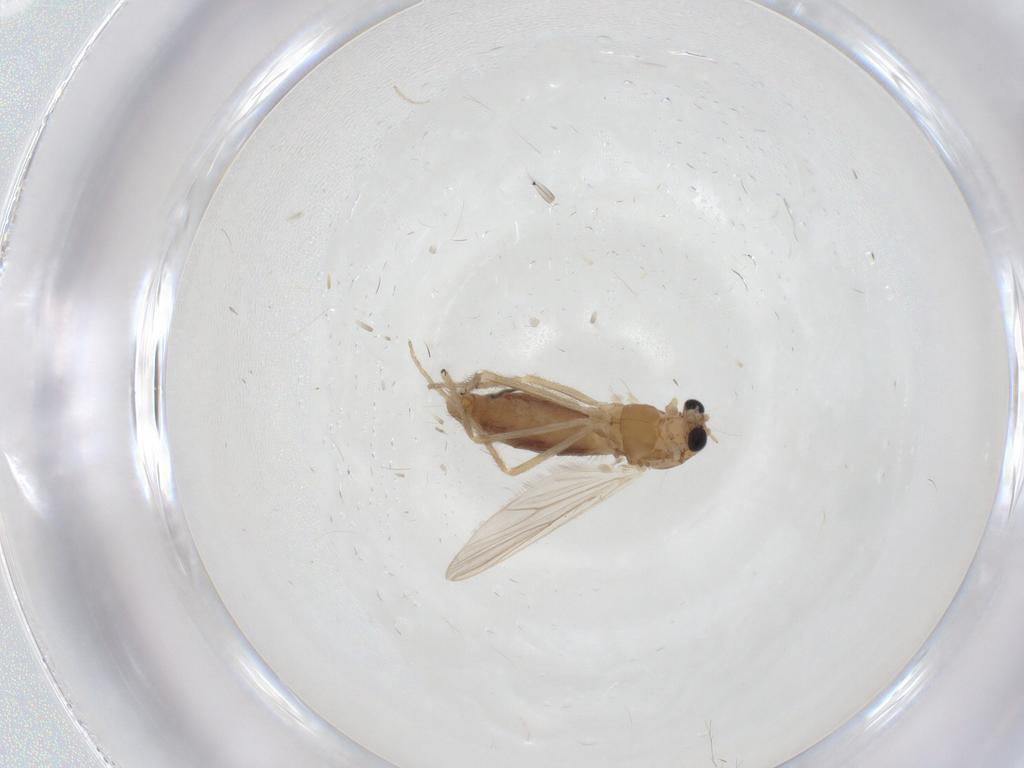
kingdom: Animalia
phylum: Arthropoda
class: Insecta
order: Diptera
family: Chironomidae
